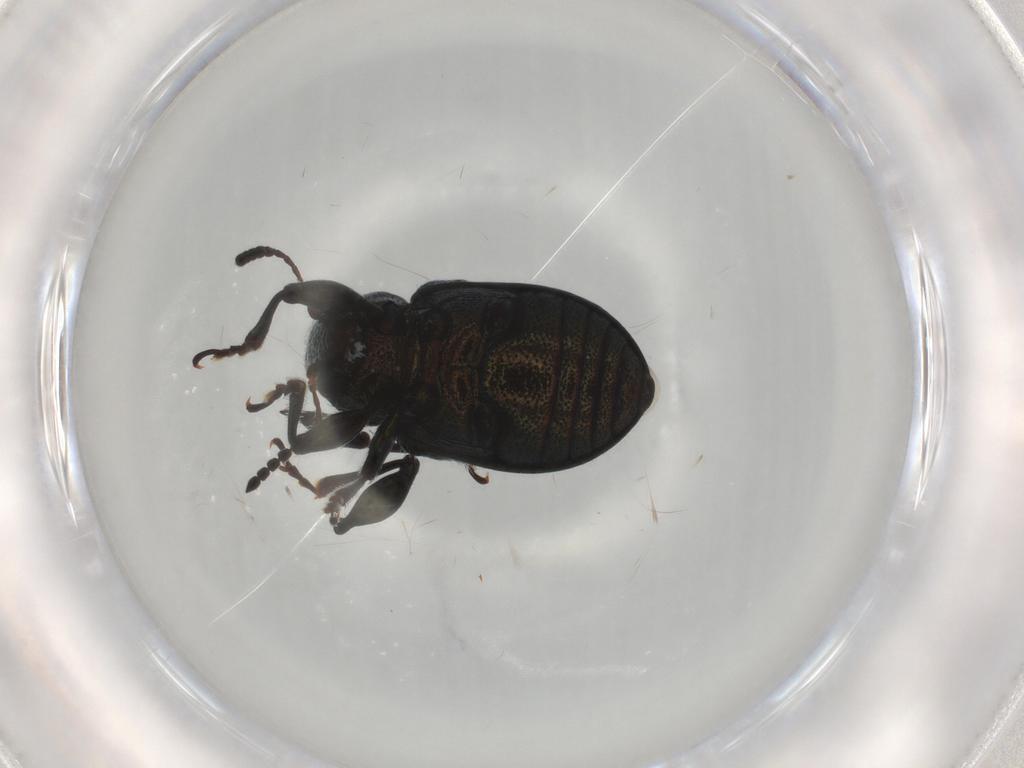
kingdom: Animalia
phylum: Arthropoda
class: Insecta
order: Coleoptera
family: Chrysomelidae
